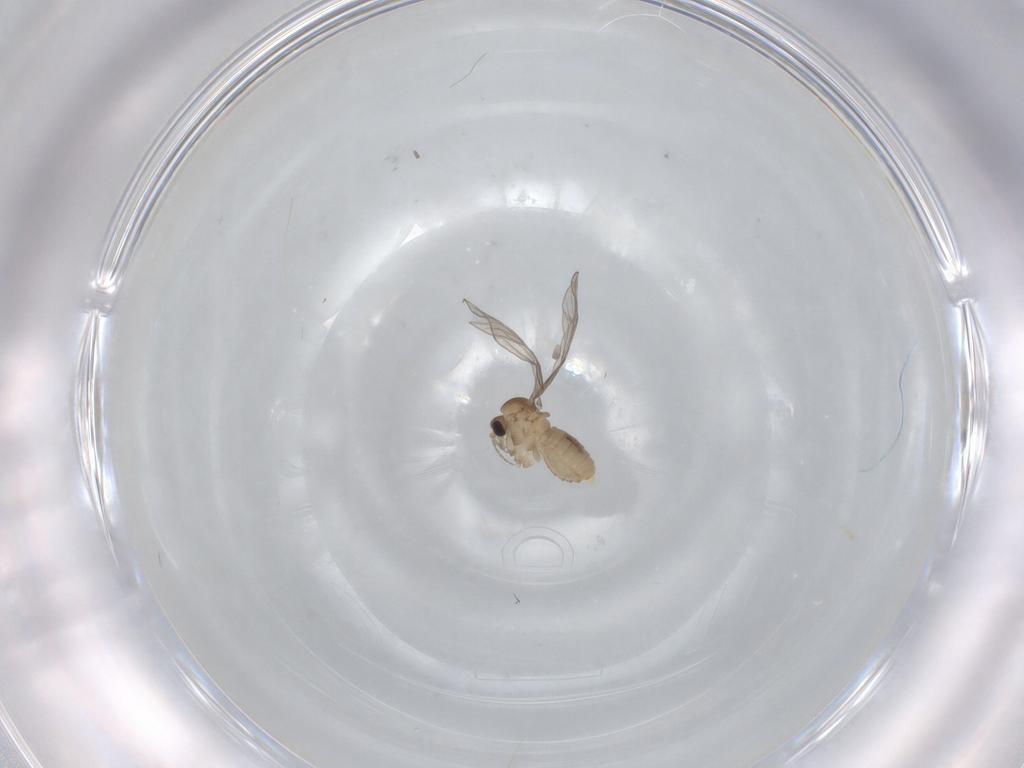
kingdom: Animalia
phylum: Arthropoda
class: Insecta
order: Diptera
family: Psychodidae
